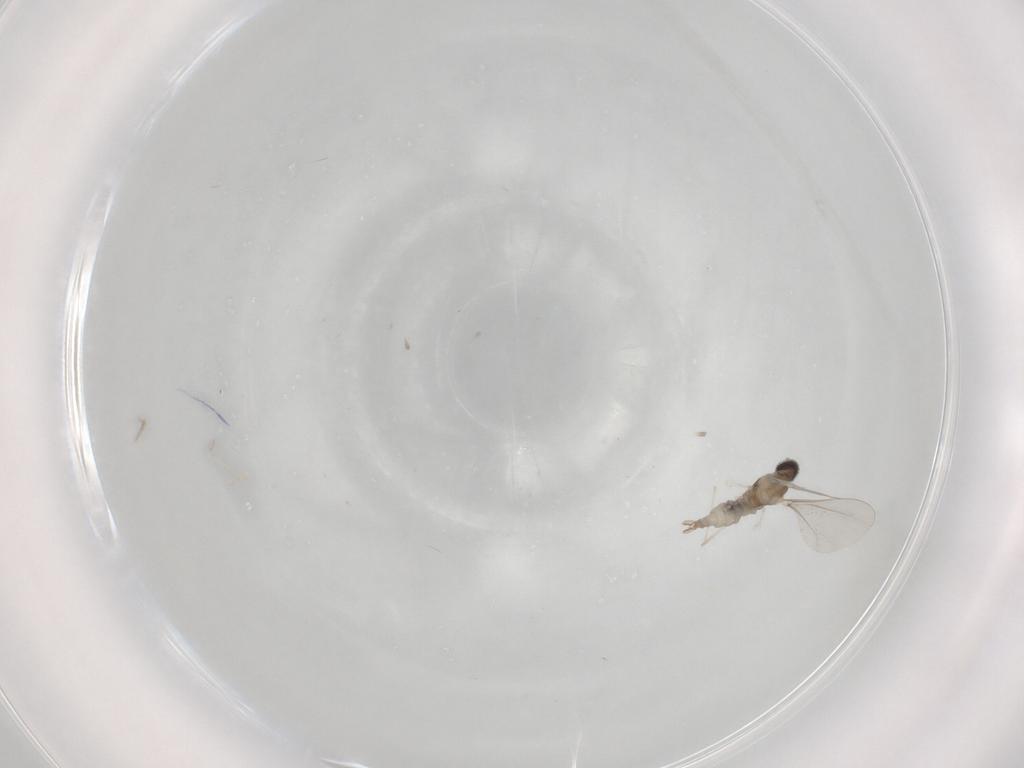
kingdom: Animalia
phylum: Arthropoda
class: Insecta
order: Diptera
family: Cecidomyiidae
